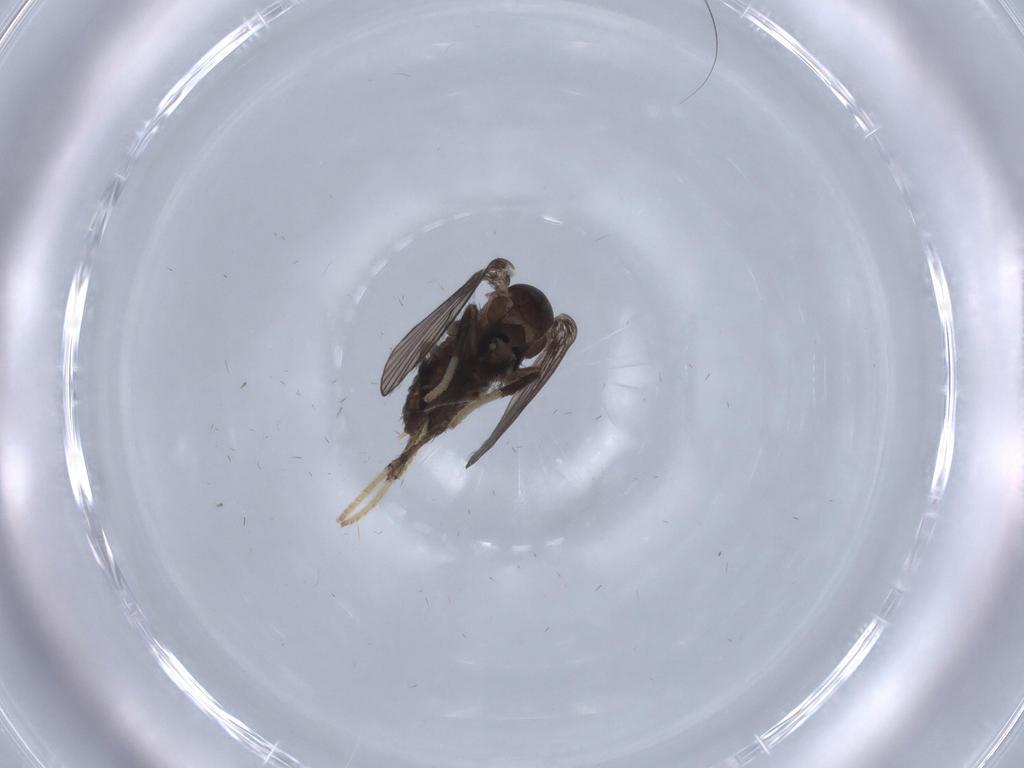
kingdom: Animalia
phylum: Arthropoda
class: Insecta
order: Diptera
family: Psychodidae
